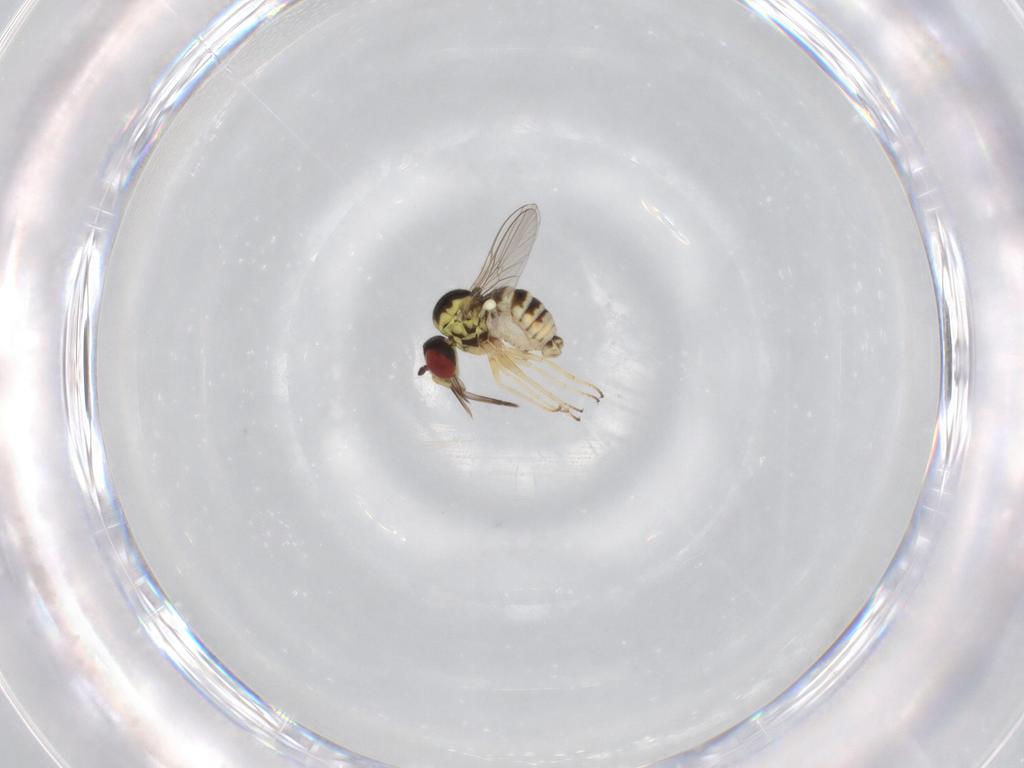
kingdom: Animalia
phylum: Arthropoda
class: Insecta
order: Diptera
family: Bombyliidae
